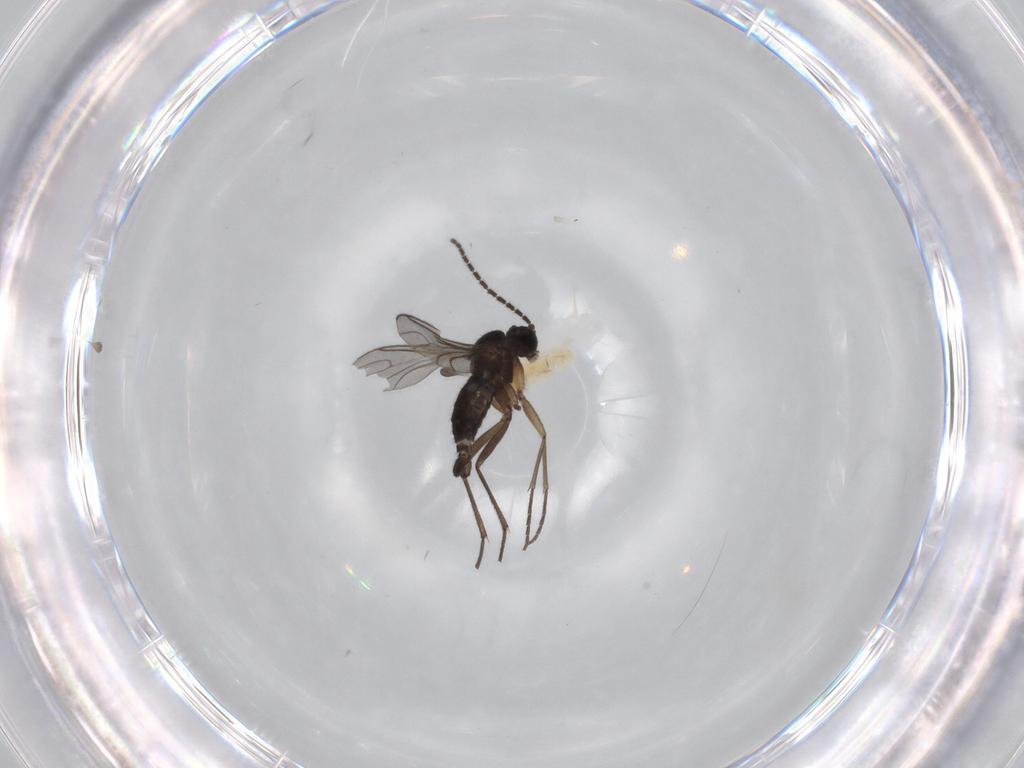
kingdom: Animalia
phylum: Arthropoda
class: Insecta
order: Diptera
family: Sciaridae
